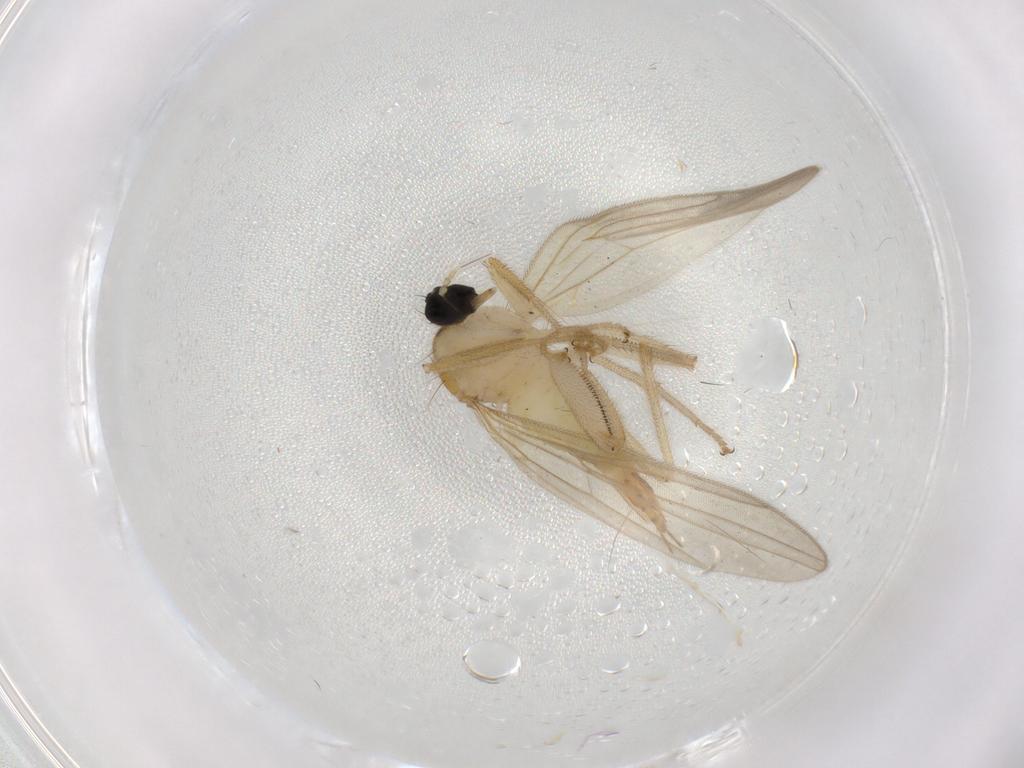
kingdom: Animalia
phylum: Arthropoda
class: Insecta
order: Diptera
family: Hybotidae
